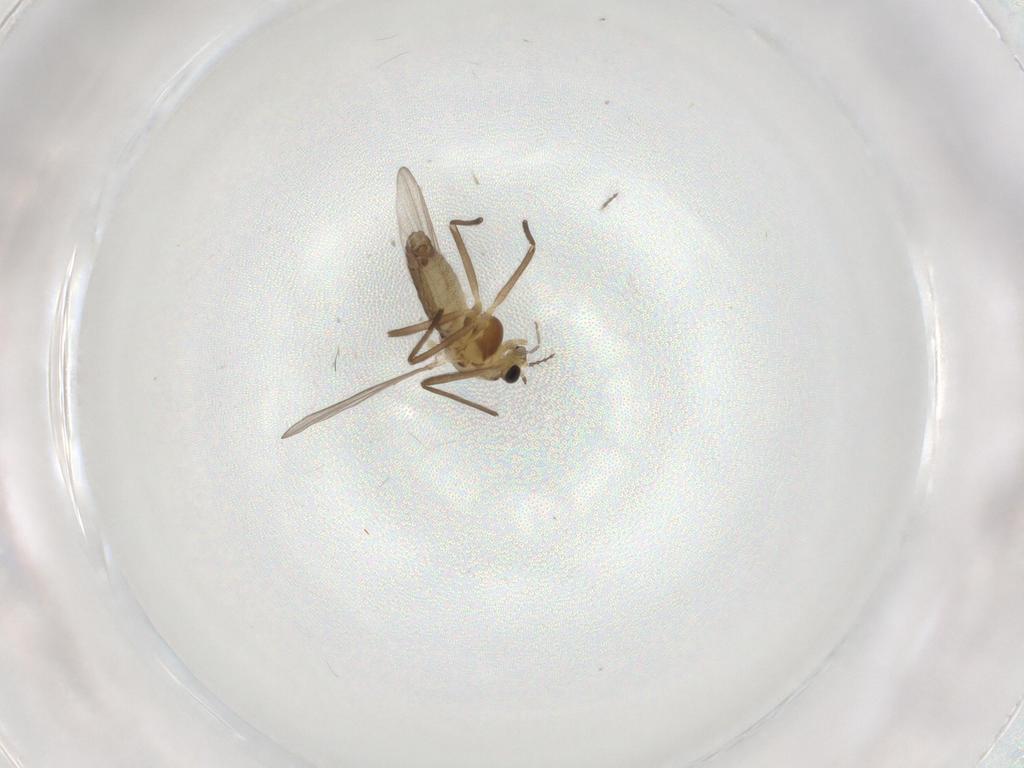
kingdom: Animalia
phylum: Arthropoda
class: Insecta
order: Diptera
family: Chironomidae
